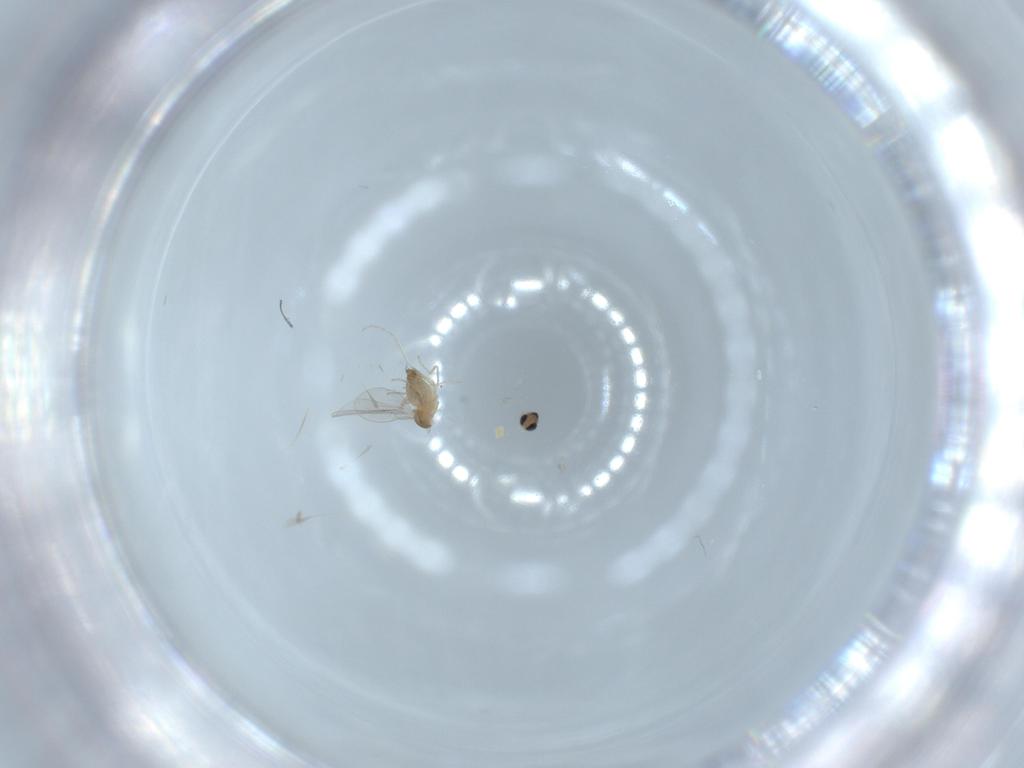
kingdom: Animalia
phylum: Arthropoda
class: Insecta
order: Diptera
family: Cecidomyiidae
